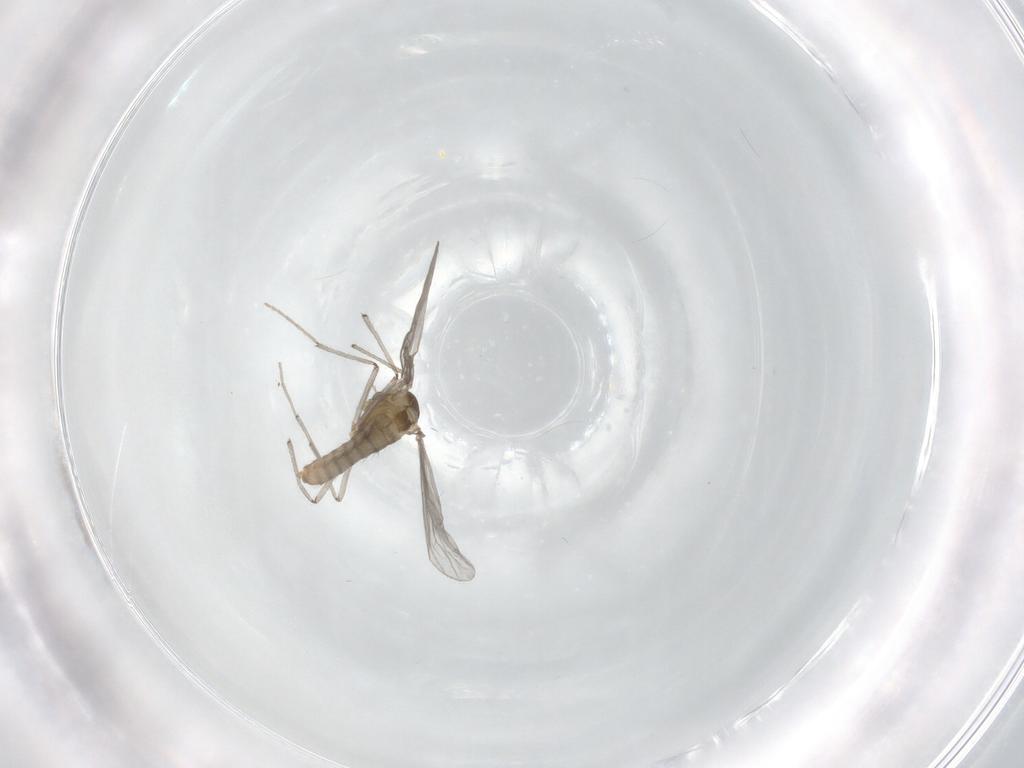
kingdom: Animalia
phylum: Arthropoda
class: Insecta
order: Diptera
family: Chironomidae
